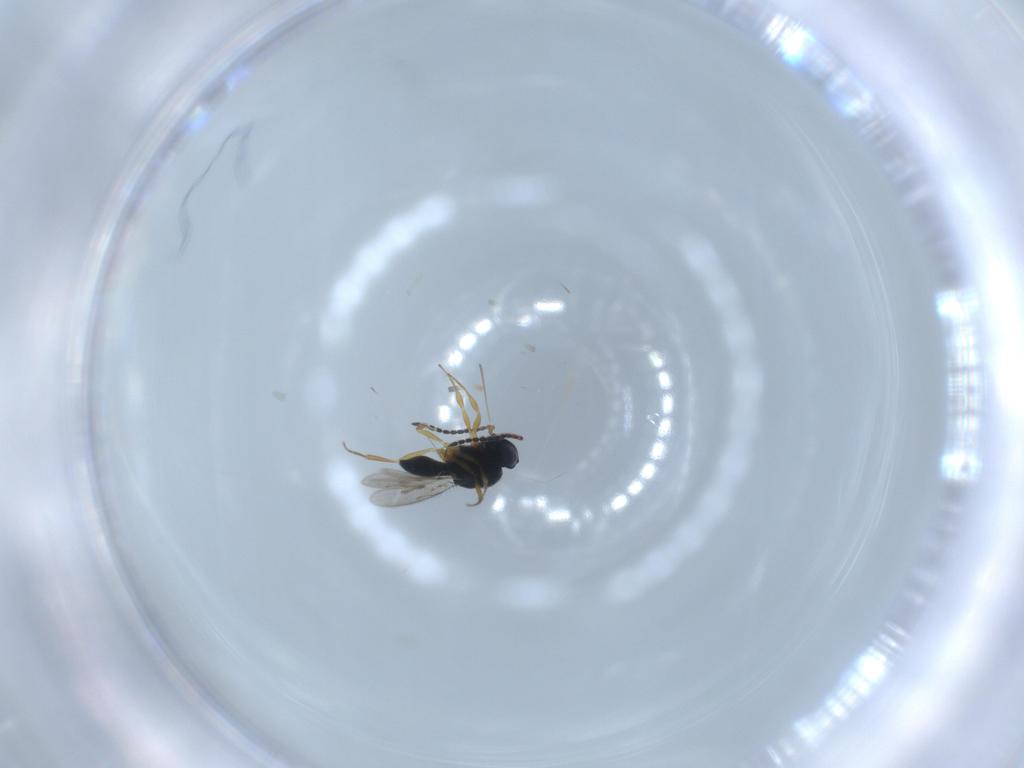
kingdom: Animalia
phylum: Arthropoda
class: Insecta
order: Hymenoptera
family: Scelionidae
